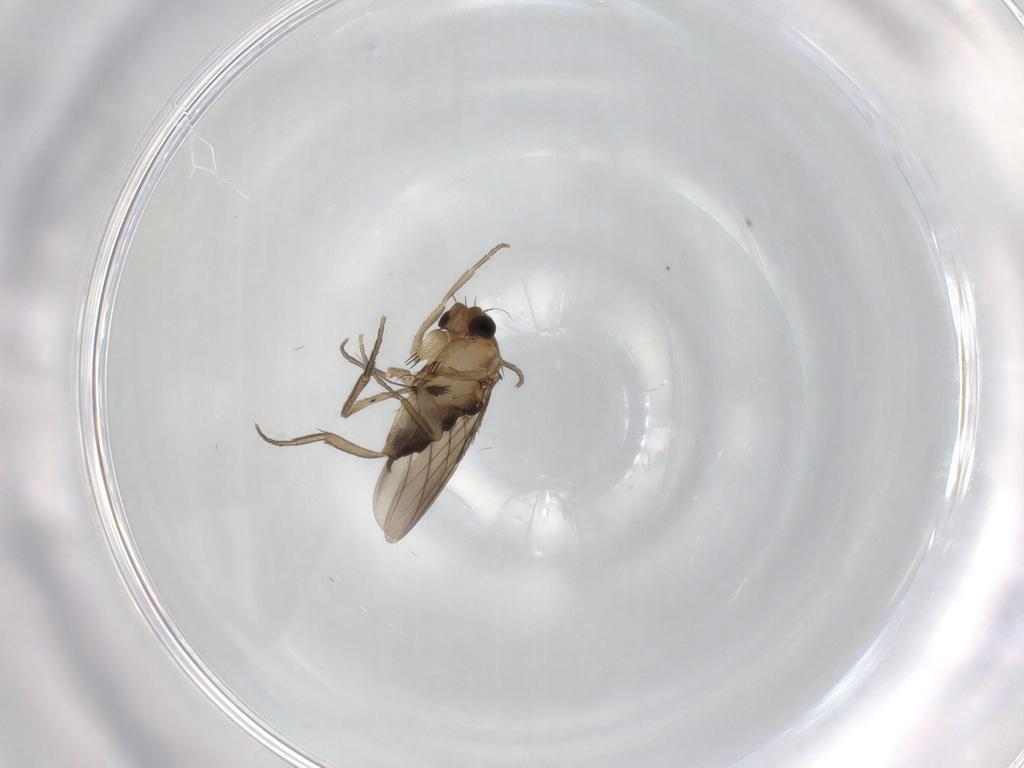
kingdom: Animalia
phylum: Arthropoda
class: Insecta
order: Diptera
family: Phoridae
